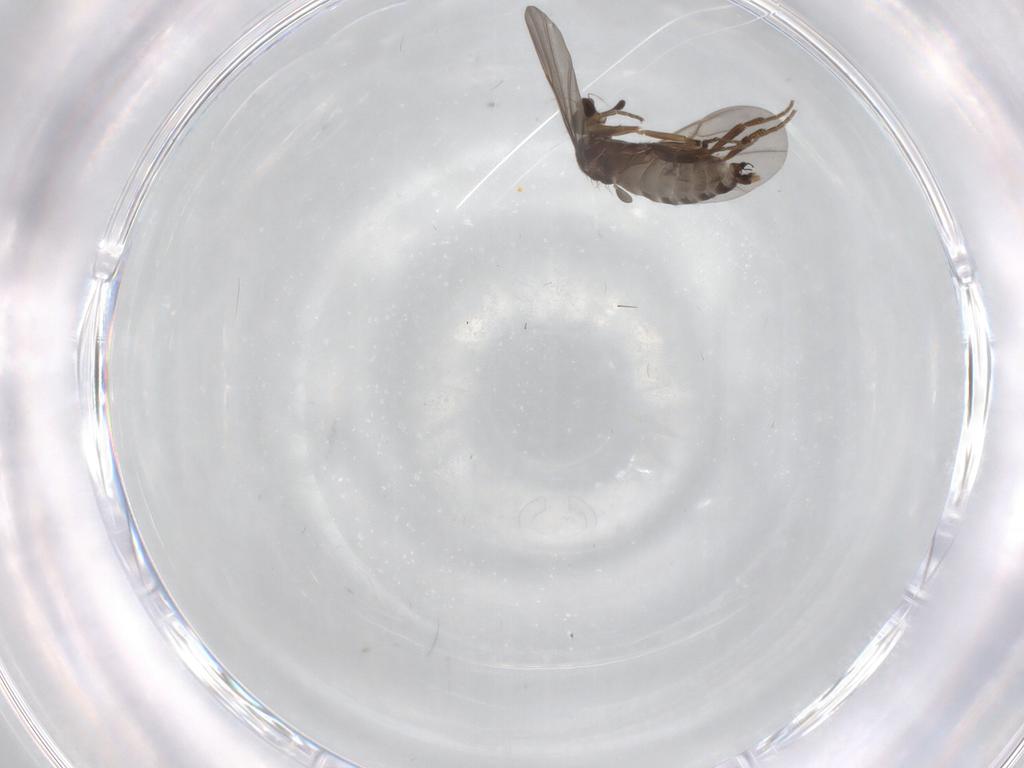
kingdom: Animalia
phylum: Arthropoda
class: Insecta
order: Diptera
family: Limoniidae
